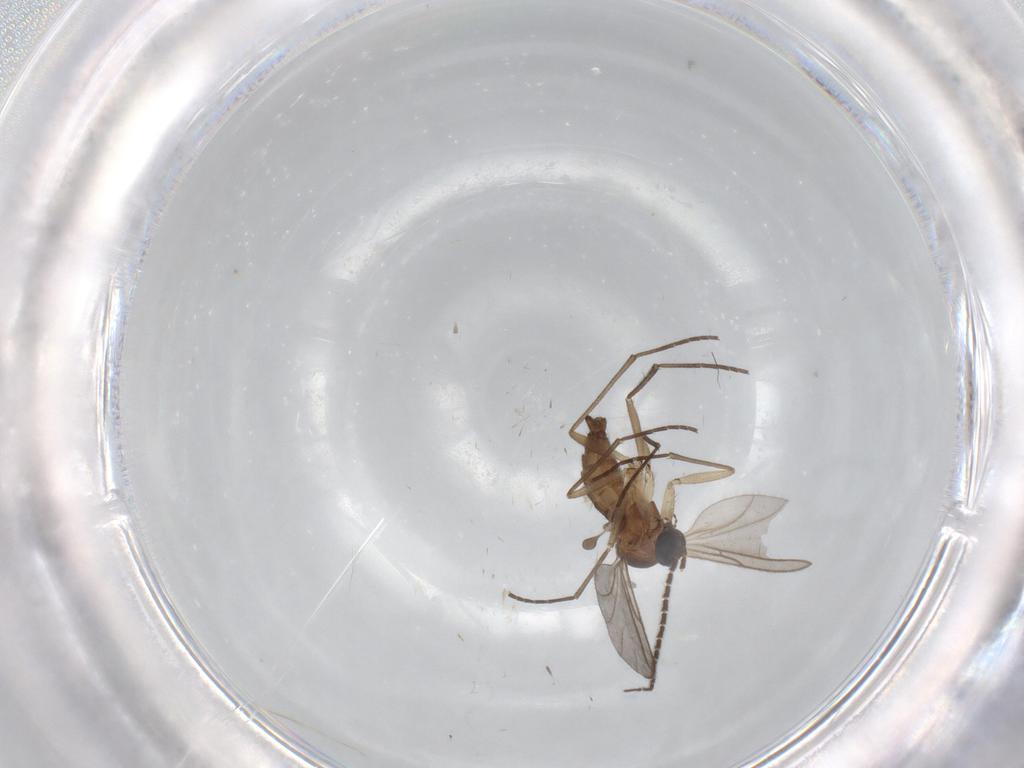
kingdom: Animalia
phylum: Arthropoda
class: Insecta
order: Diptera
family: Sciaridae
